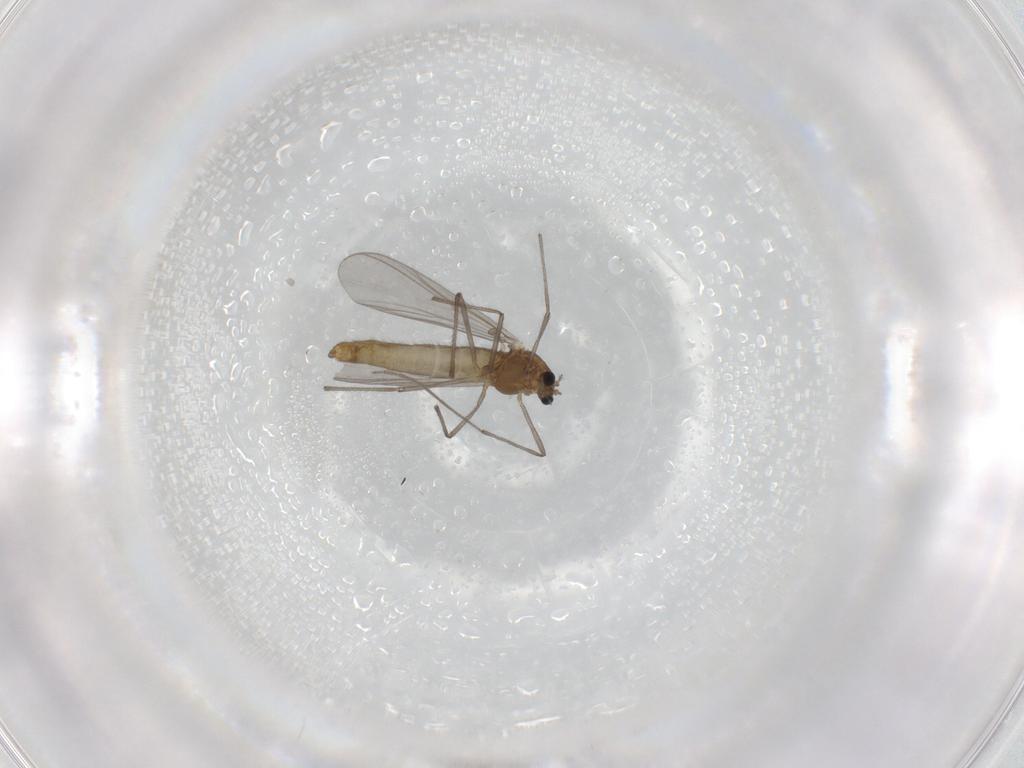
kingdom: Animalia
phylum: Arthropoda
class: Insecta
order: Diptera
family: Chironomidae
